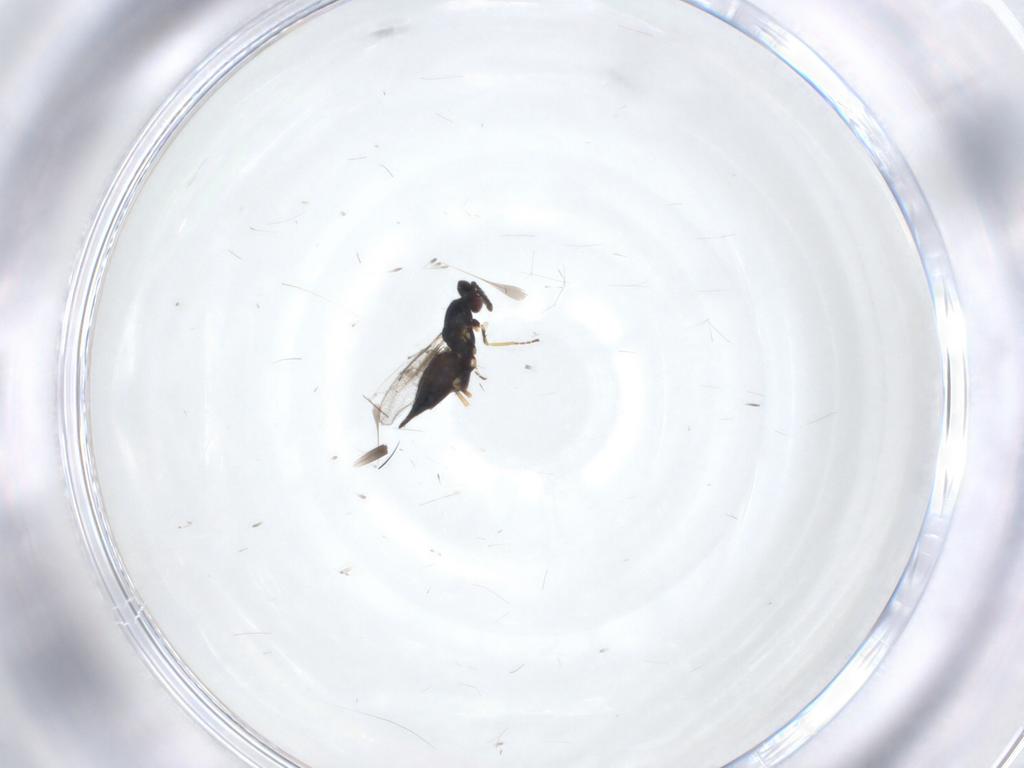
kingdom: Animalia
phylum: Arthropoda
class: Insecta
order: Hymenoptera
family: Eulophidae
